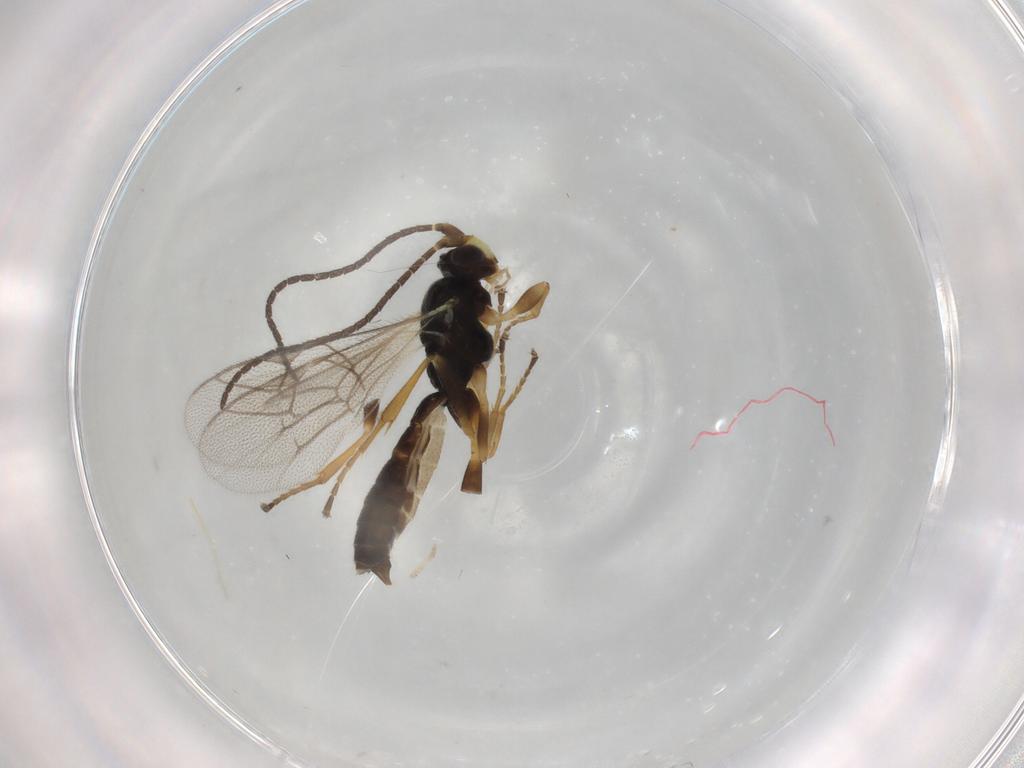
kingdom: Animalia
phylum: Arthropoda
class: Insecta
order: Hymenoptera
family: Ichneumonidae
